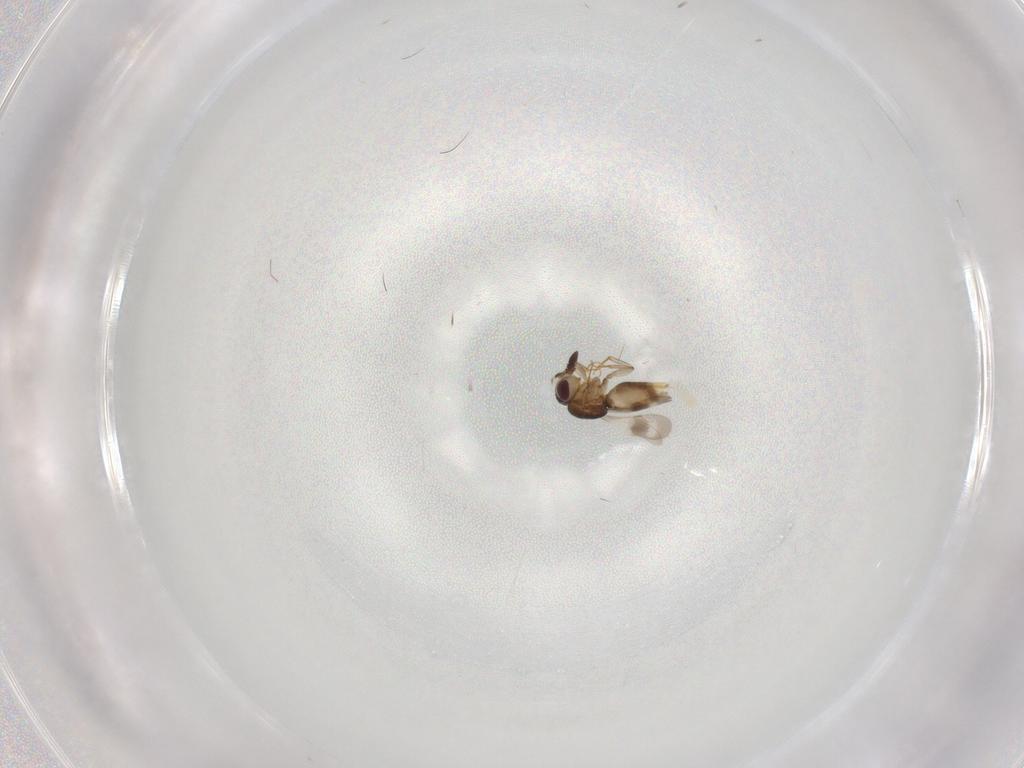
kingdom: Animalia
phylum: Arthropoda
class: Insecta
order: Hymenoptera
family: Ceraphronidae
